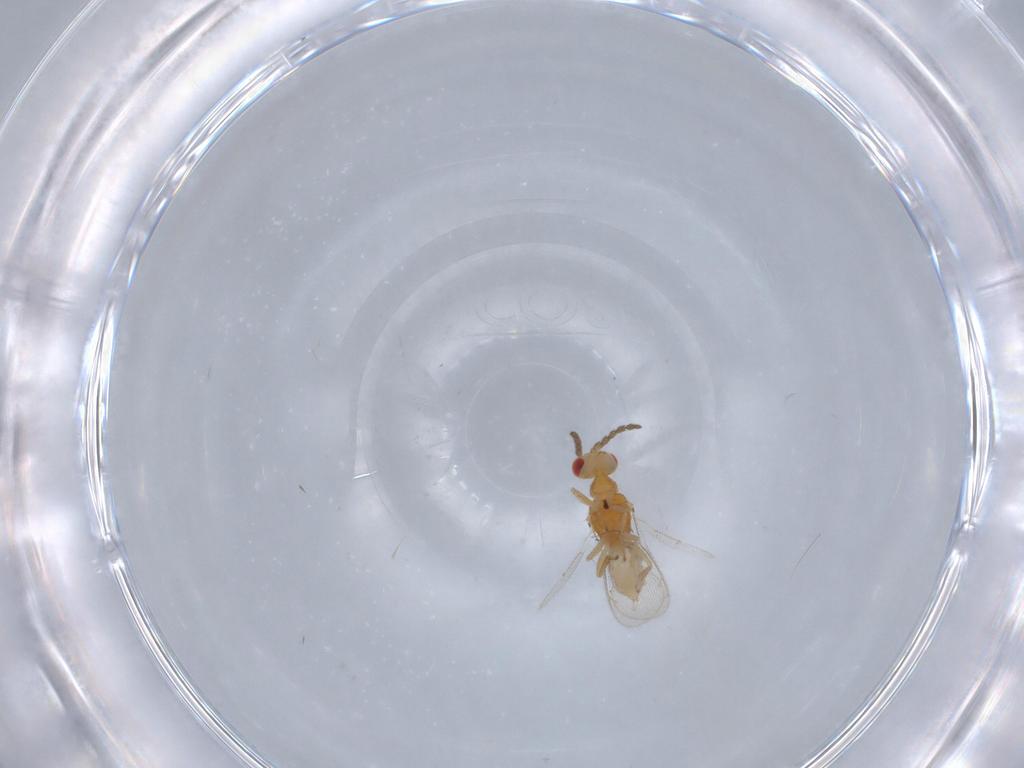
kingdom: Animalia
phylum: Arthropoda
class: Insecta
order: Hymenoptera
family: Eulophidae
